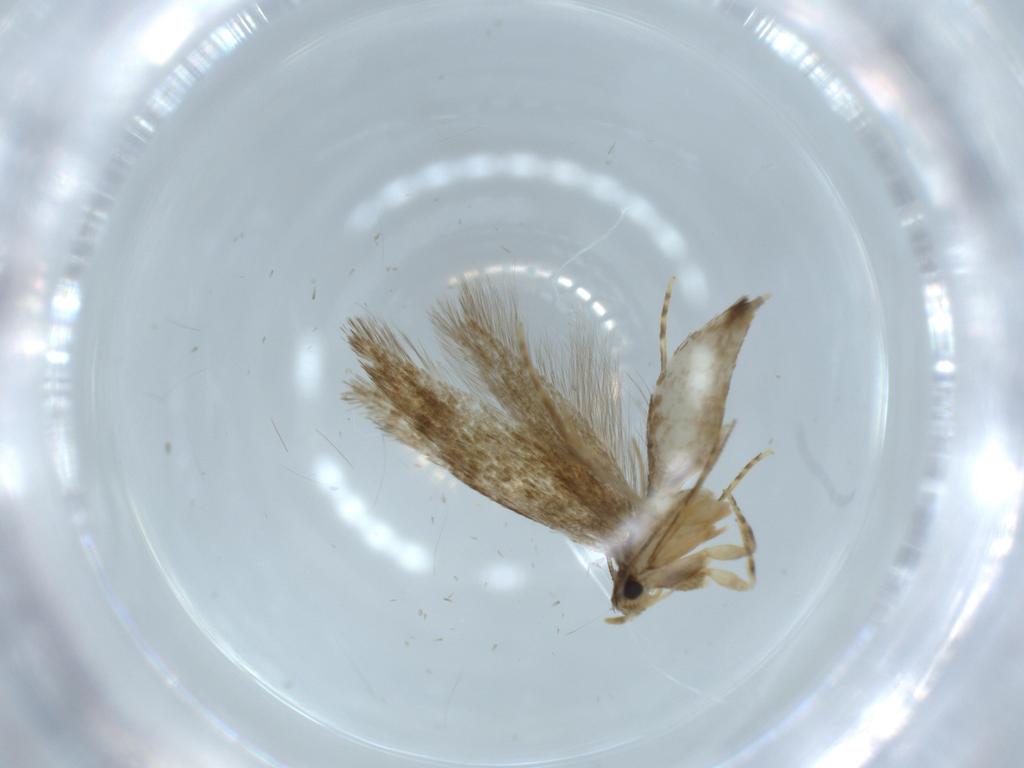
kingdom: Animalia
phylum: Arthropoda
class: Insecta
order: Lepidoptera
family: Tineidae
